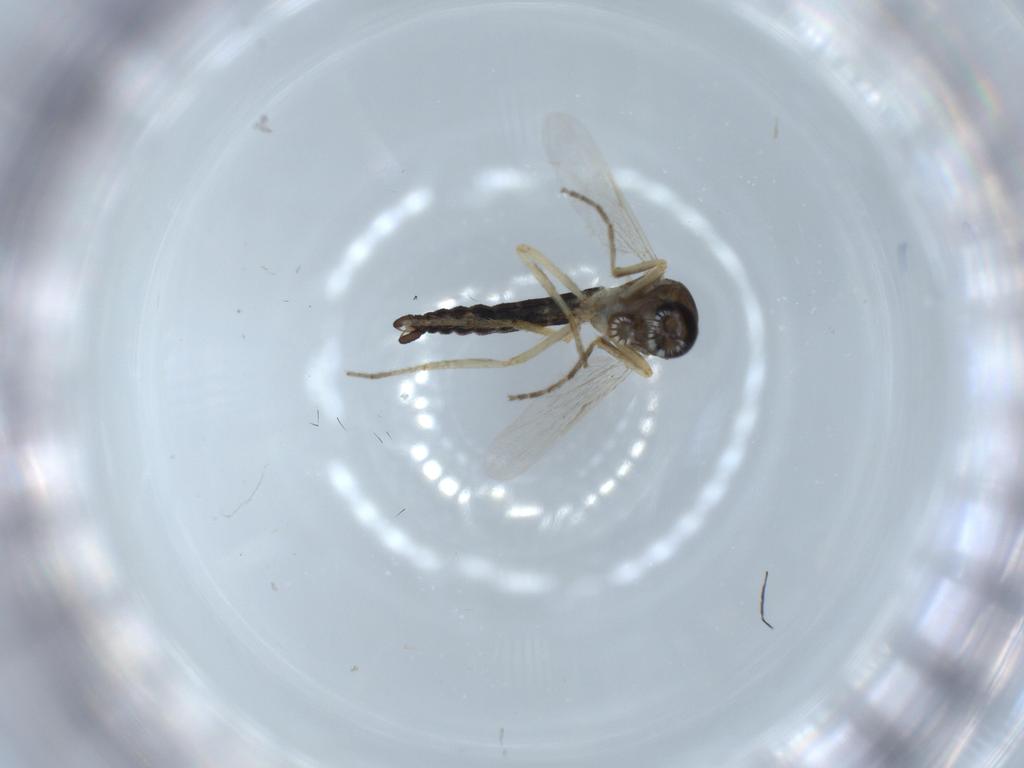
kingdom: Animalia
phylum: Arthropoda
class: Insecta
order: Diptera
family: Ceratopogonidae
